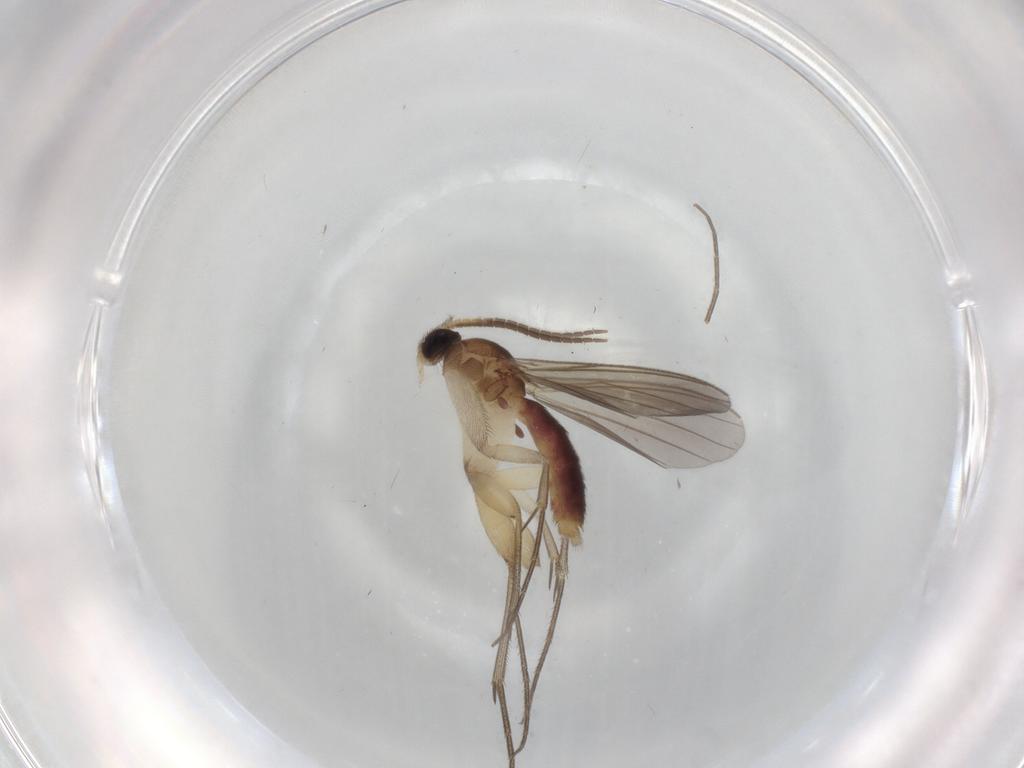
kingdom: Animalia
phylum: Arthropoda
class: Insecta
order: Diptera
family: Mycetophilidae
